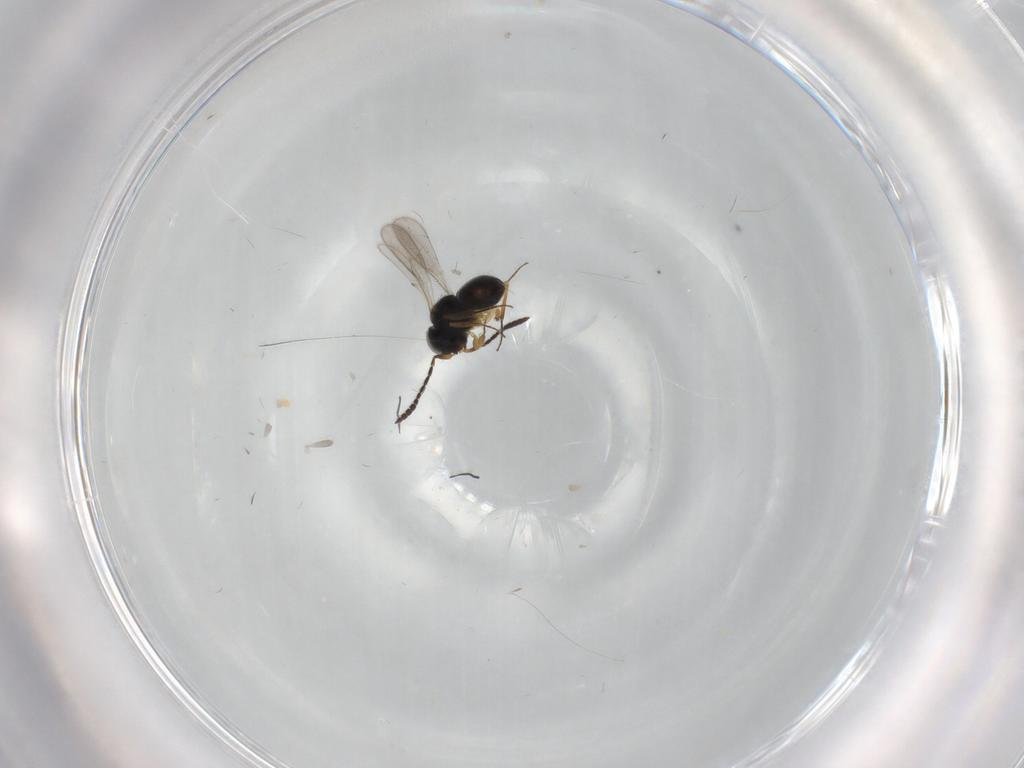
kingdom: Animalia
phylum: Arthropoda
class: Insecta
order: Hymenoptera
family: Scelionidae
